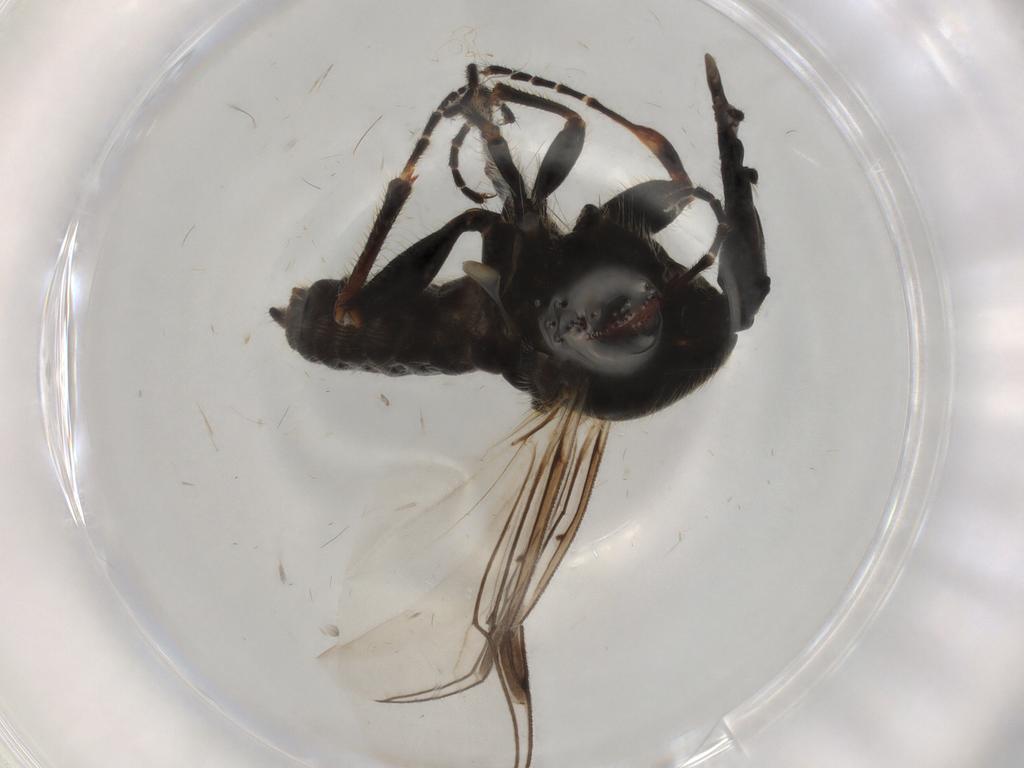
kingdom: Animalia
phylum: Arthropoda
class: Insecta
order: Diptera
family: Bibionidae
